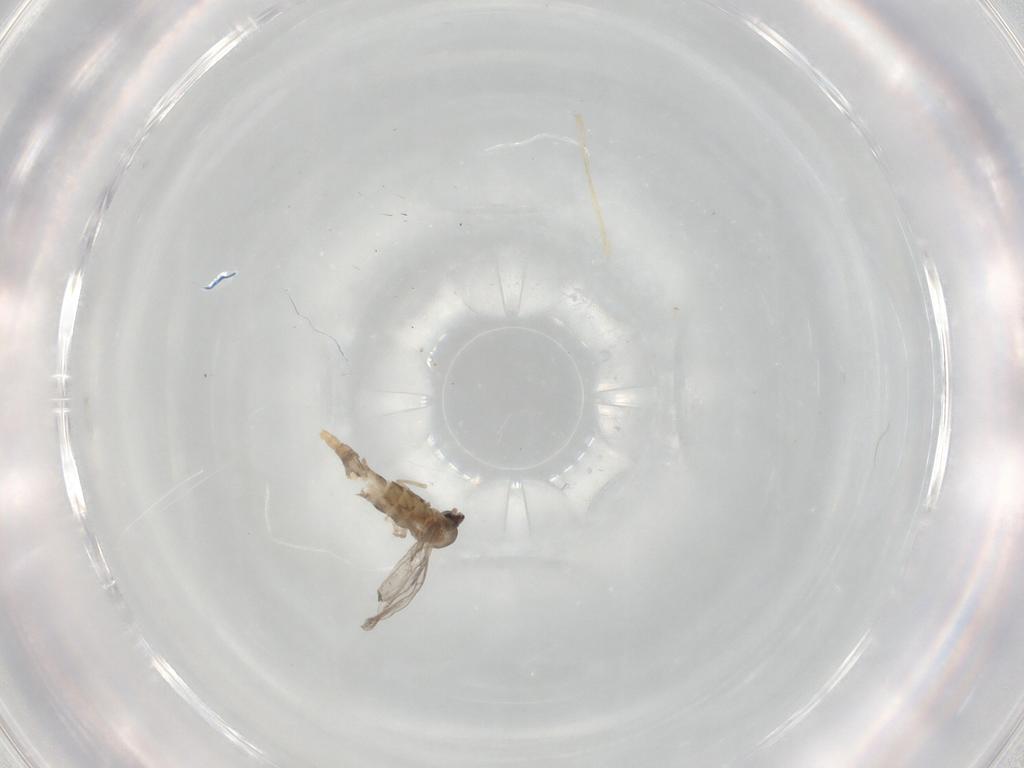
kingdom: Animalia
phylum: Arthropoda
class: Insecta
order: Diptera
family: Cecidomyiidae
